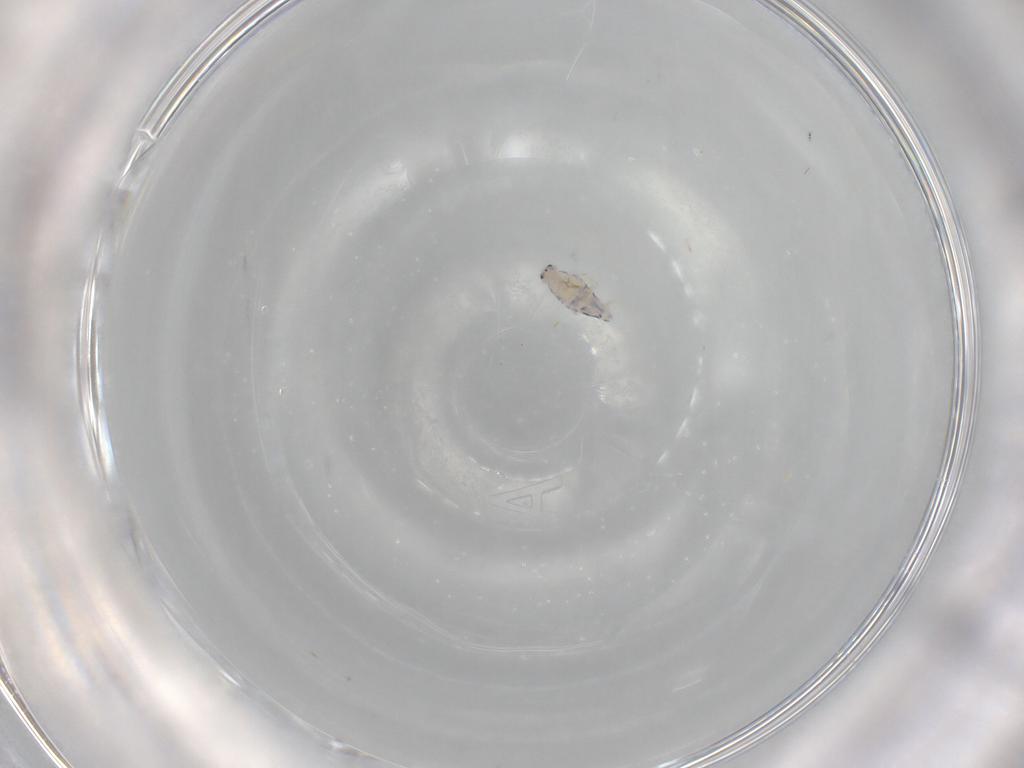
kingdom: Animalia
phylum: Arthropoda
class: Collembola
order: Entomobryomorpha
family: Entomobryidae
